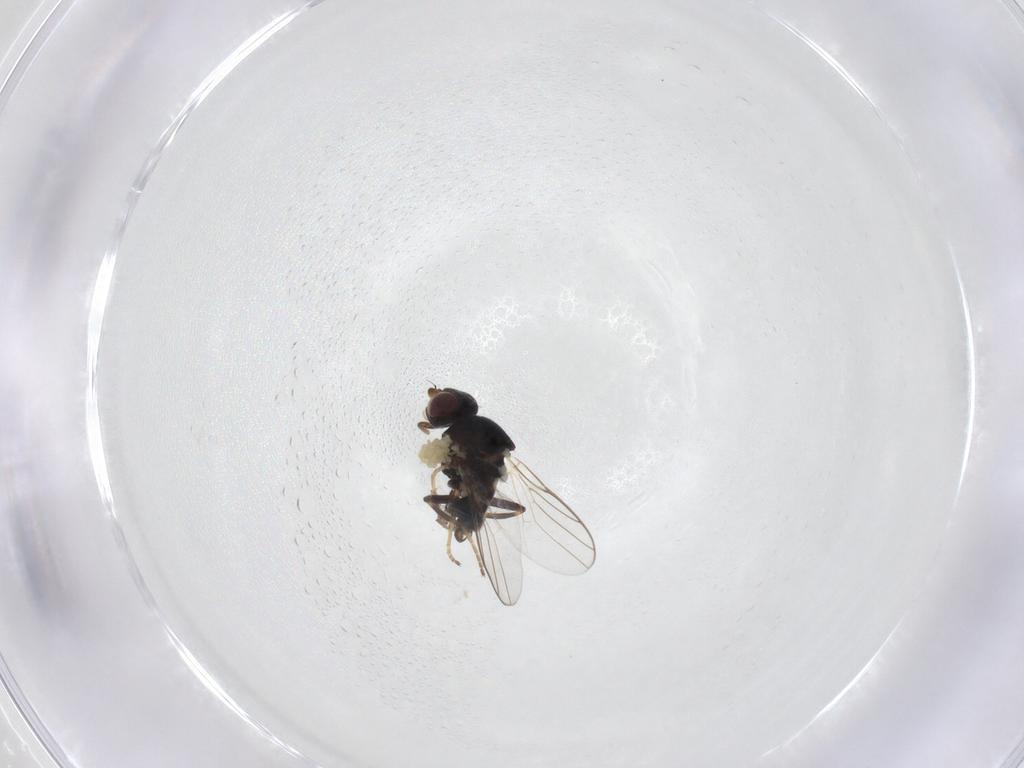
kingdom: Animalia
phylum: Arthropoda
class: Insecta
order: Diptera
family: Chloropidae
